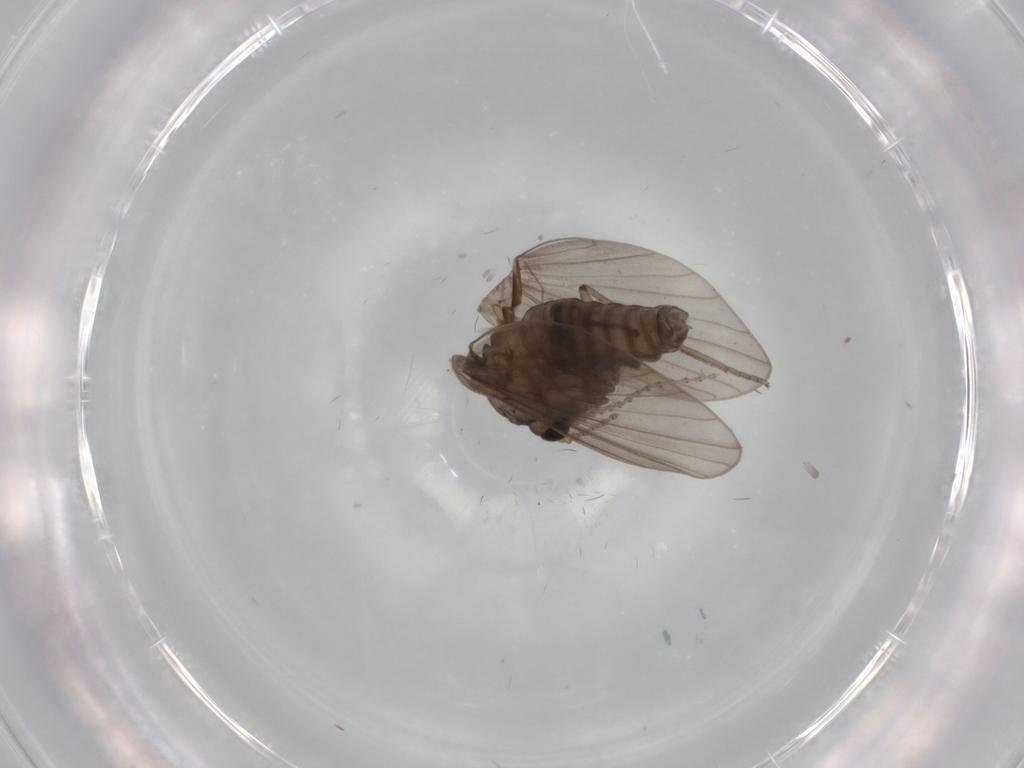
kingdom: Animalia
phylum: Arthropoda
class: Insecta
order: Diptera
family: Psychodidae
